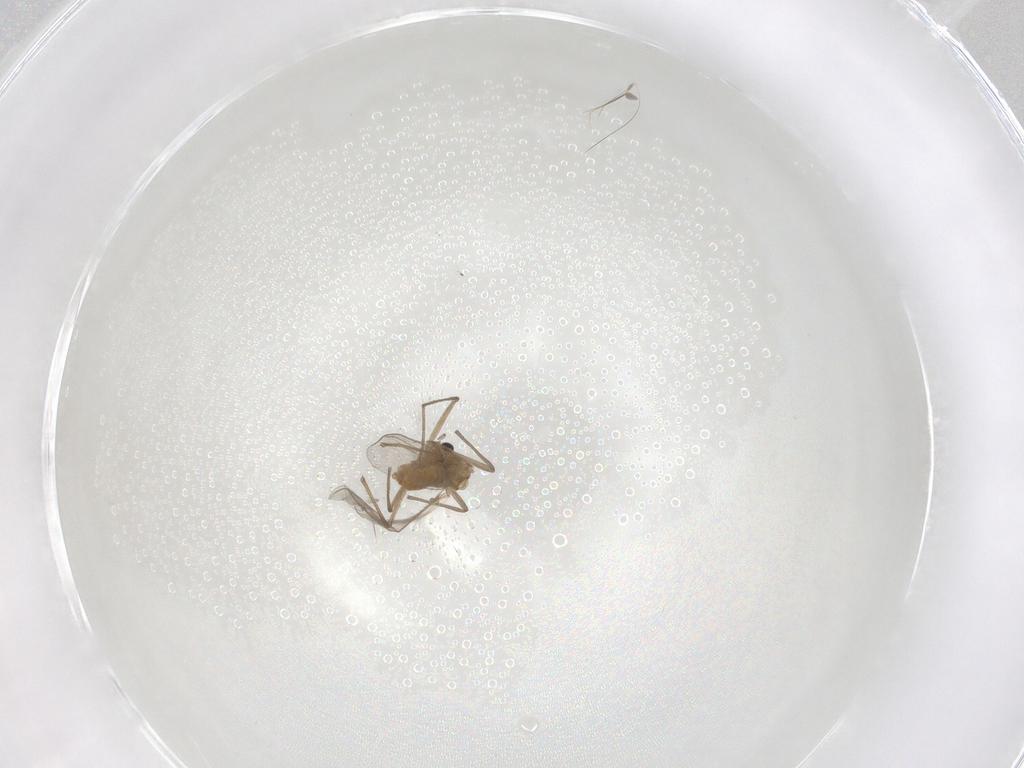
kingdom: Animalia
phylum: Arthropoda
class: Insecta
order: Diptera
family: Chironomidae
